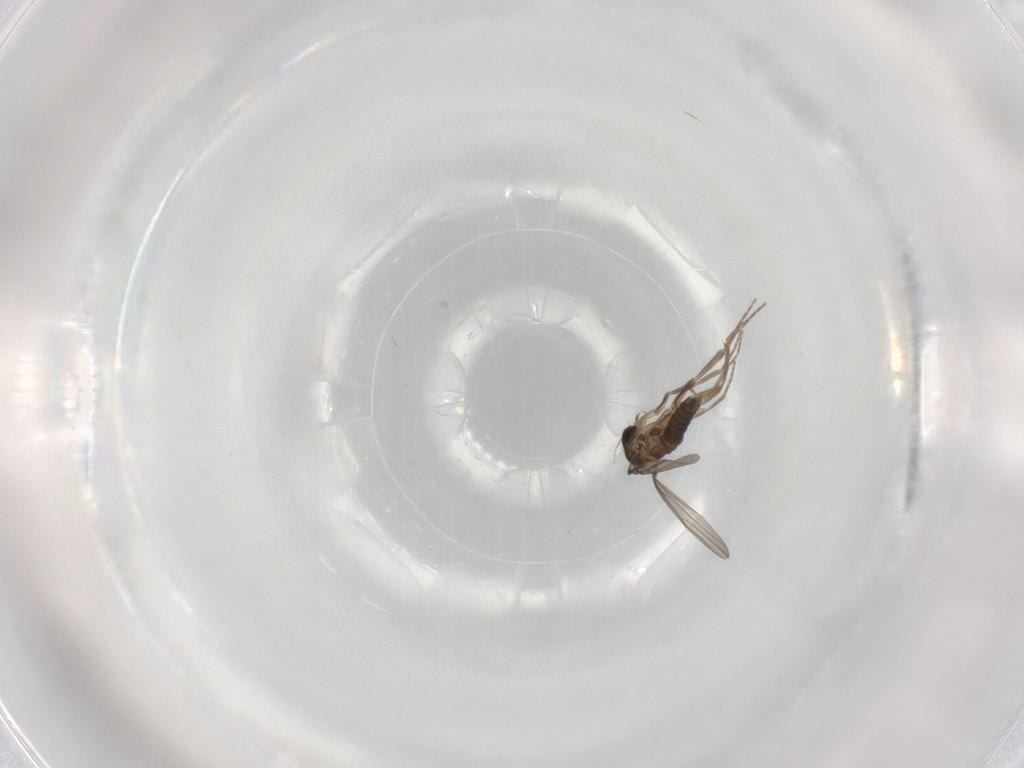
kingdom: Animalia
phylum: Arthropoda
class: Insecta
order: Diptera
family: Phoridae
